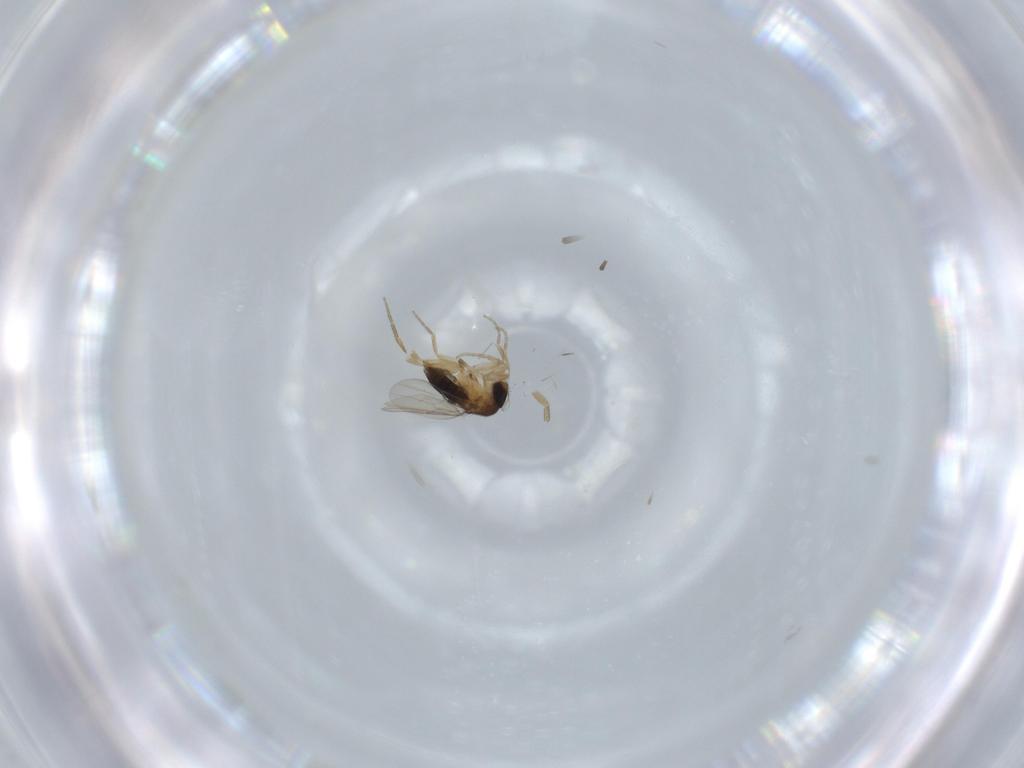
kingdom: Animalia
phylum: Arthropoda
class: Insecta
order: Diptera
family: Phoridae
